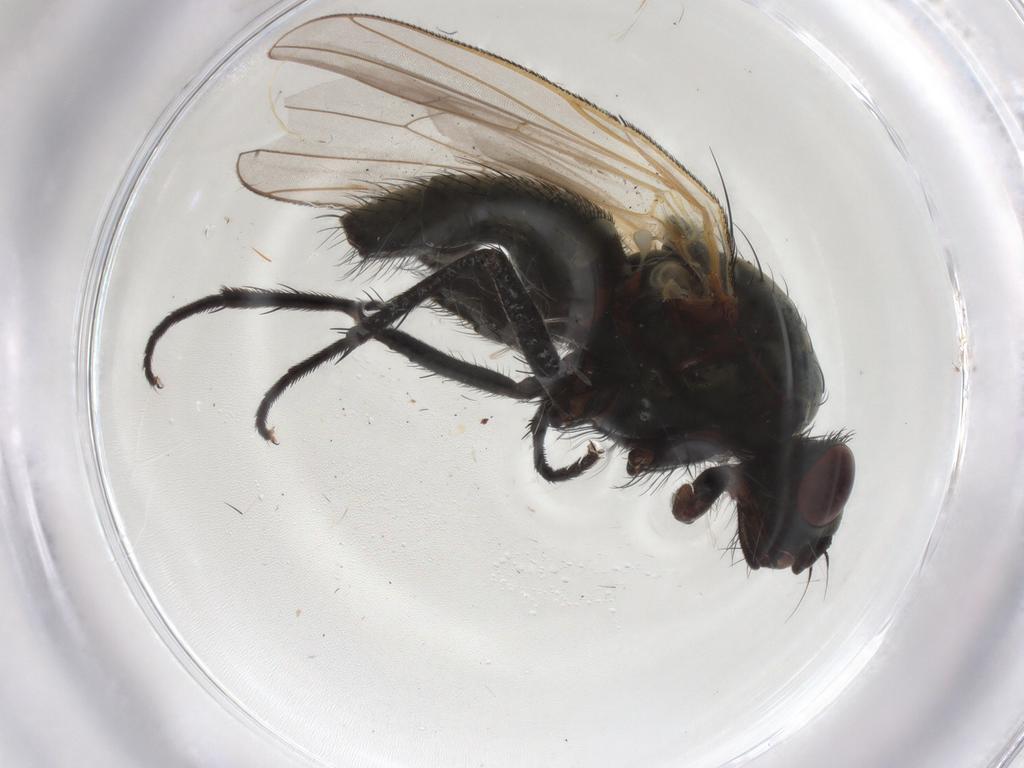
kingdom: Animalia
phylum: Arthropoda
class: Insecta
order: Diptera
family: Anthomyiidae
